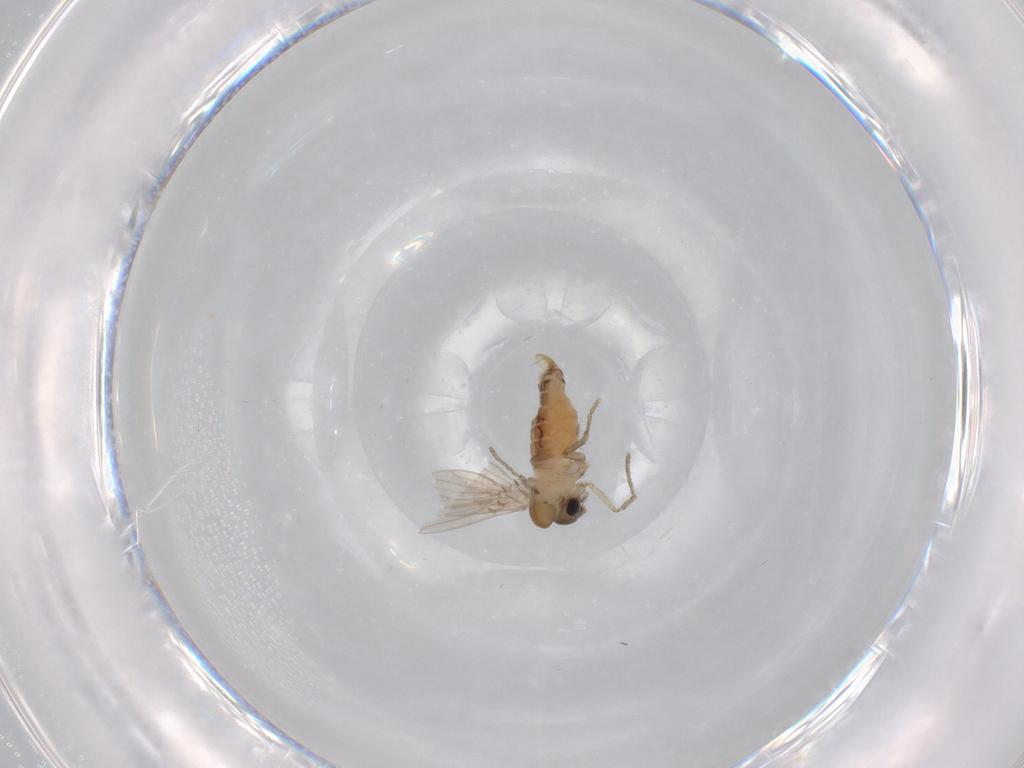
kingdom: Animalia
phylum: Arthropoda
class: Insecta
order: Diptera
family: Psychodidae
